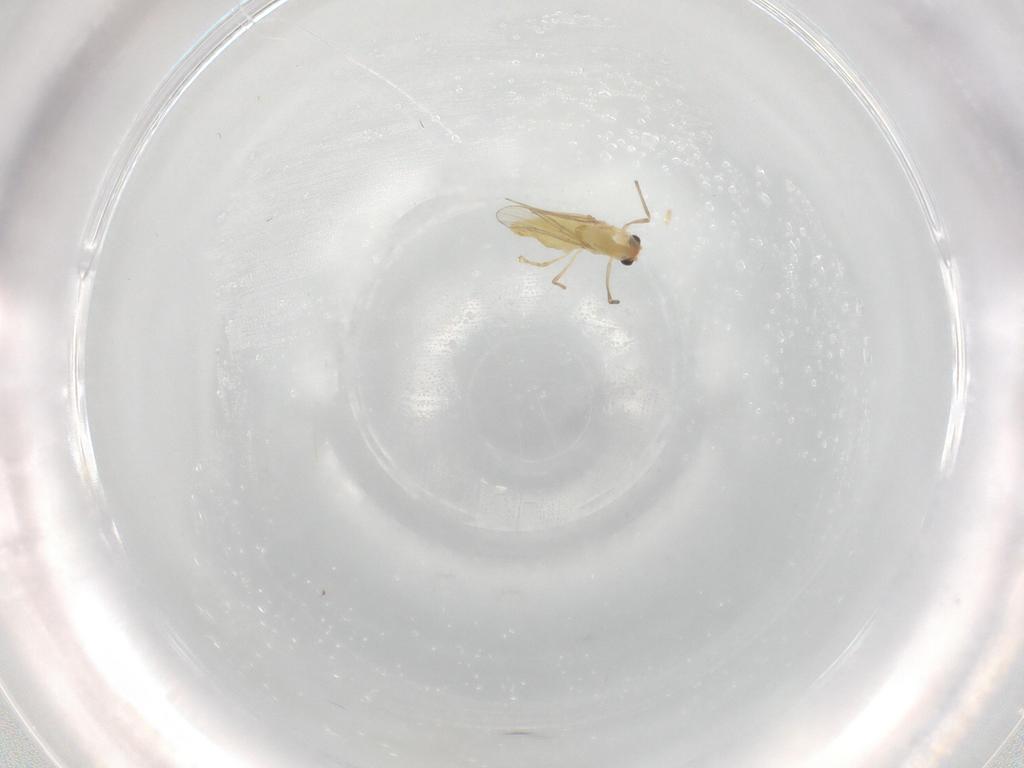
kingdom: Animalia
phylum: Arthropoda
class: Insecta
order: Diptera
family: Chironomidae
